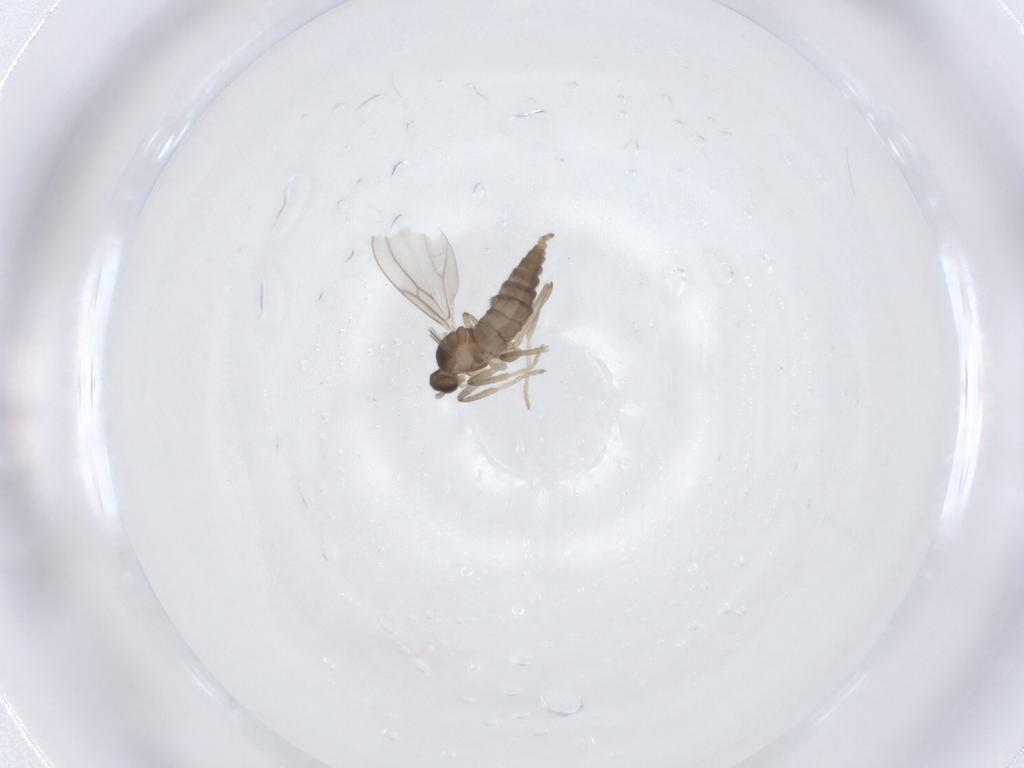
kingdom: Animalia
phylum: Arthropoda
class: Insecta
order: Diptera
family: Cecidomyiidae
